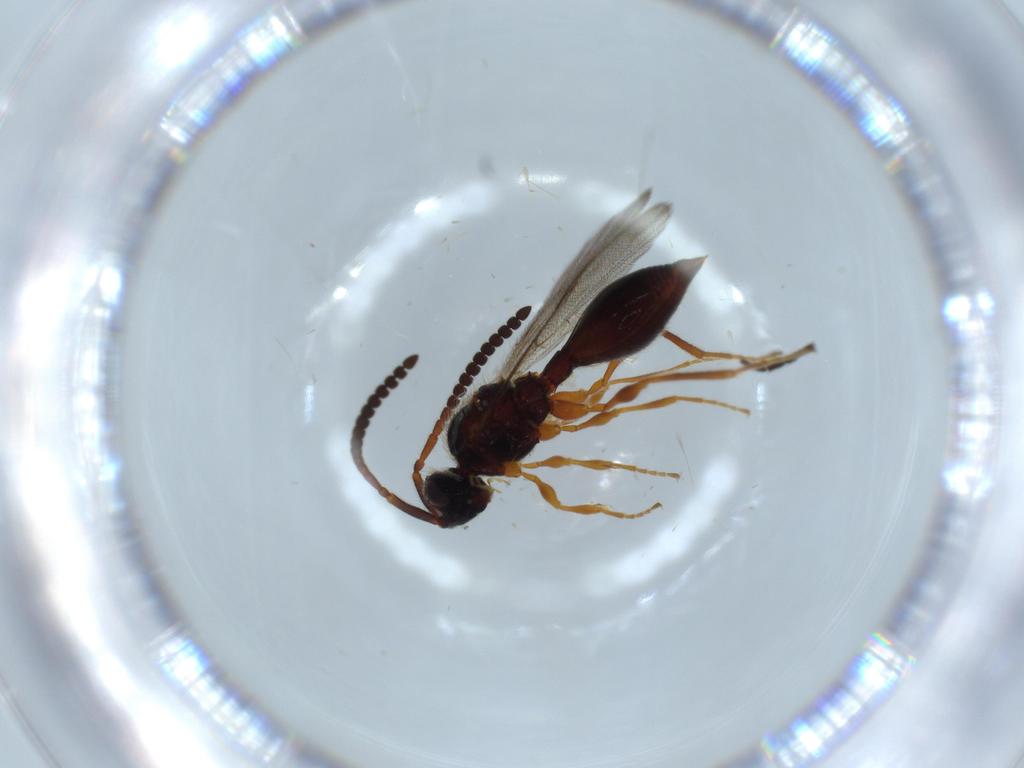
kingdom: Animalia
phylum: Arthropoda
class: Insecta
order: Hymenoptera
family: Diapriidae
